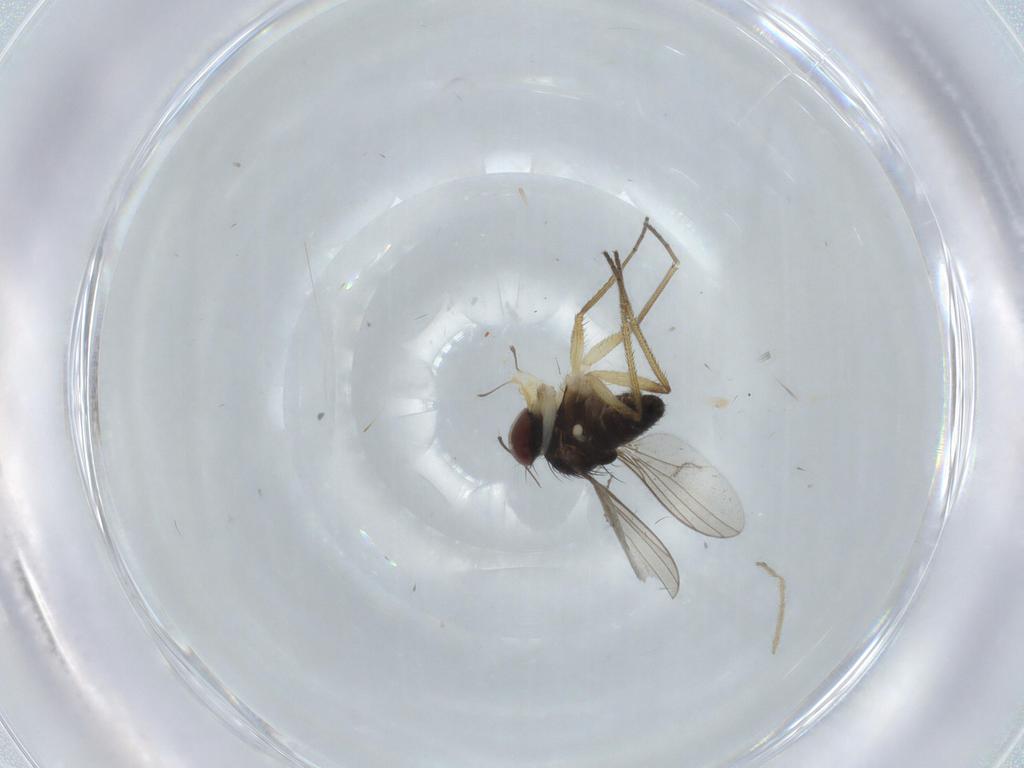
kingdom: Animalia
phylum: Arthropoda
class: Insecta
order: Diptera
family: Dolichopodidae
